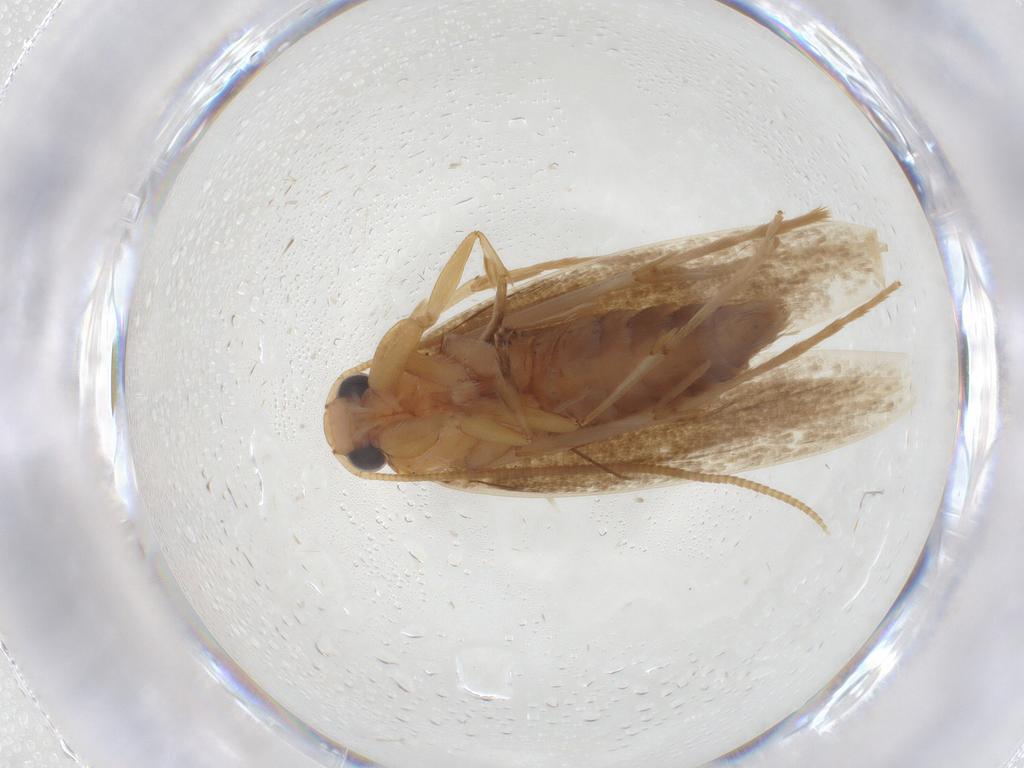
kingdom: Animalia
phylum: Arthropoda
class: Insecta
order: Lepidoptera
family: Tineidae
